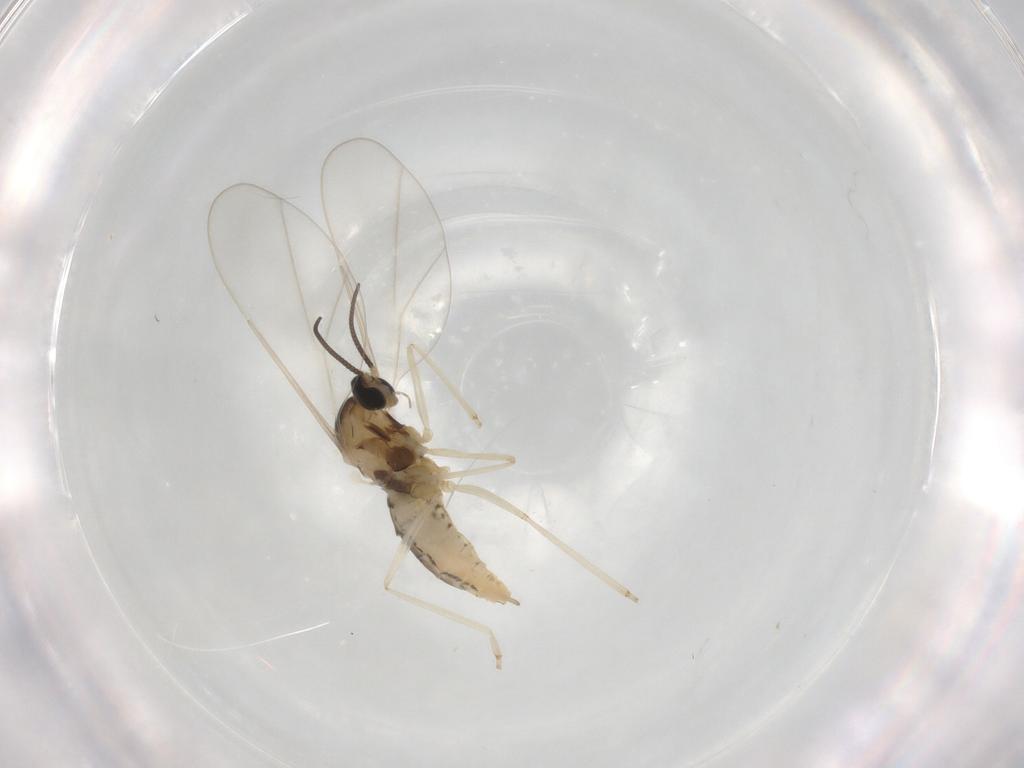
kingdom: Animalia
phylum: Arthropoda
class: Insecta
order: Diptera
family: Cecidomyiidae
